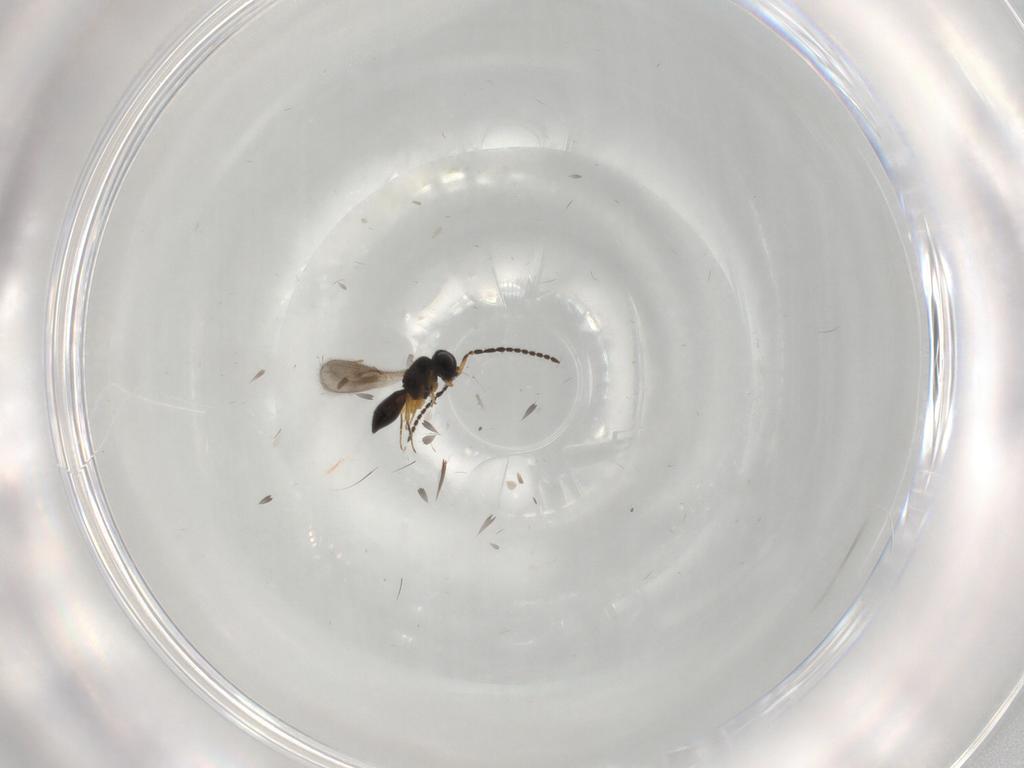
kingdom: Animalia
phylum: Arthropoda
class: Insecta
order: Hymenoptera
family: Scelionidae
